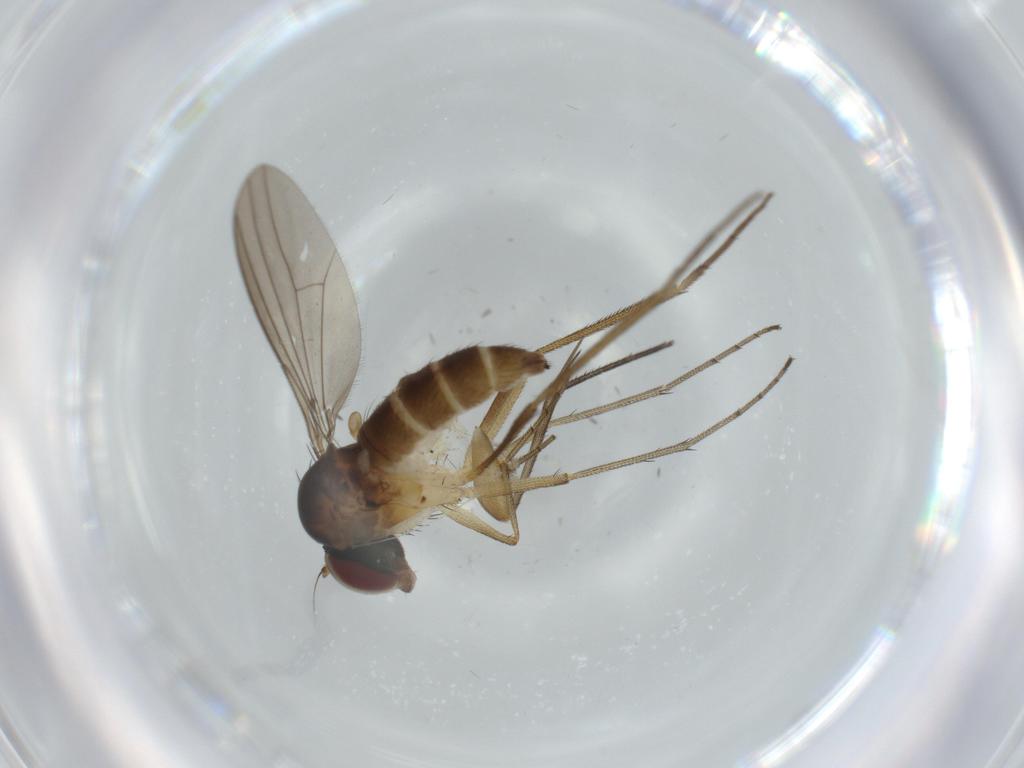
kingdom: Animalia
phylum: Arthropoda
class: Insecta
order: Diptera
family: Dolichopodidae
